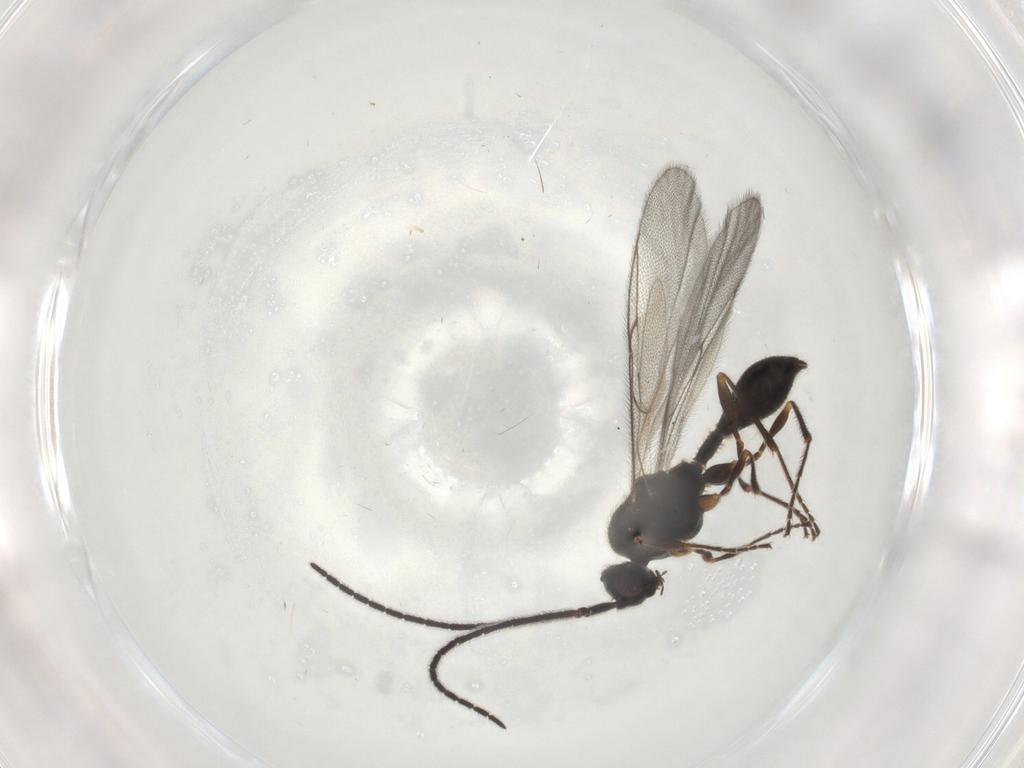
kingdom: Animalia
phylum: Arthropoda
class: Insecta
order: Hymenoptera
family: Diapriidae
